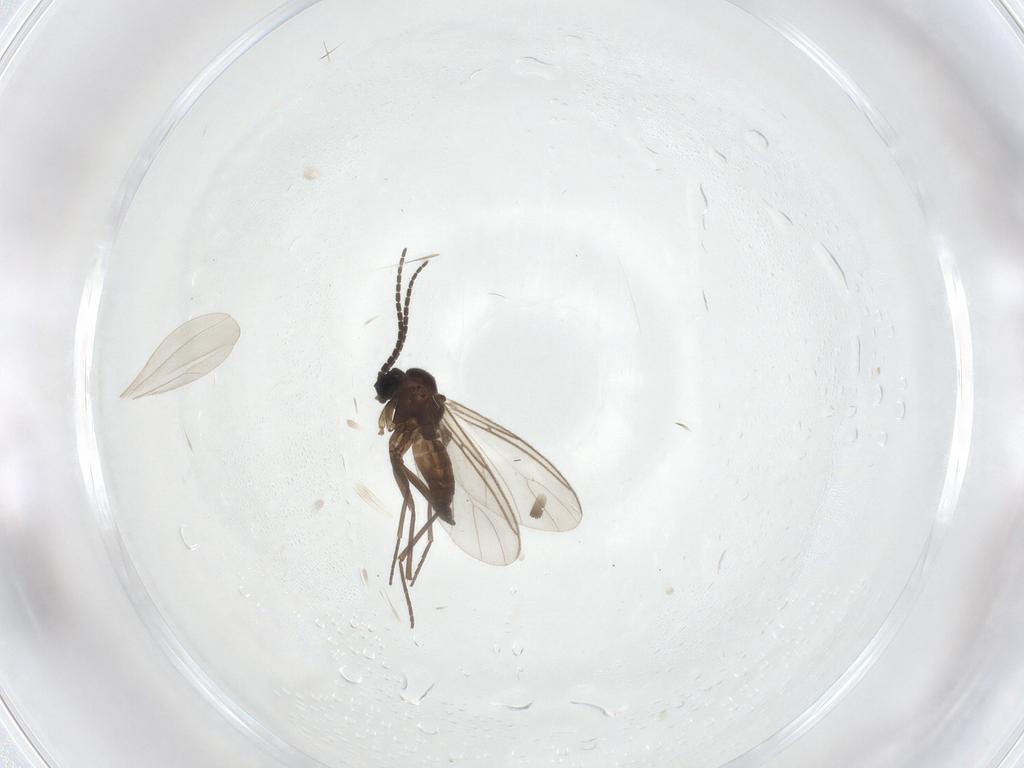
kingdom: Animalia
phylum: Arthropoda
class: Insecta
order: Diptera
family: Sciaridae
